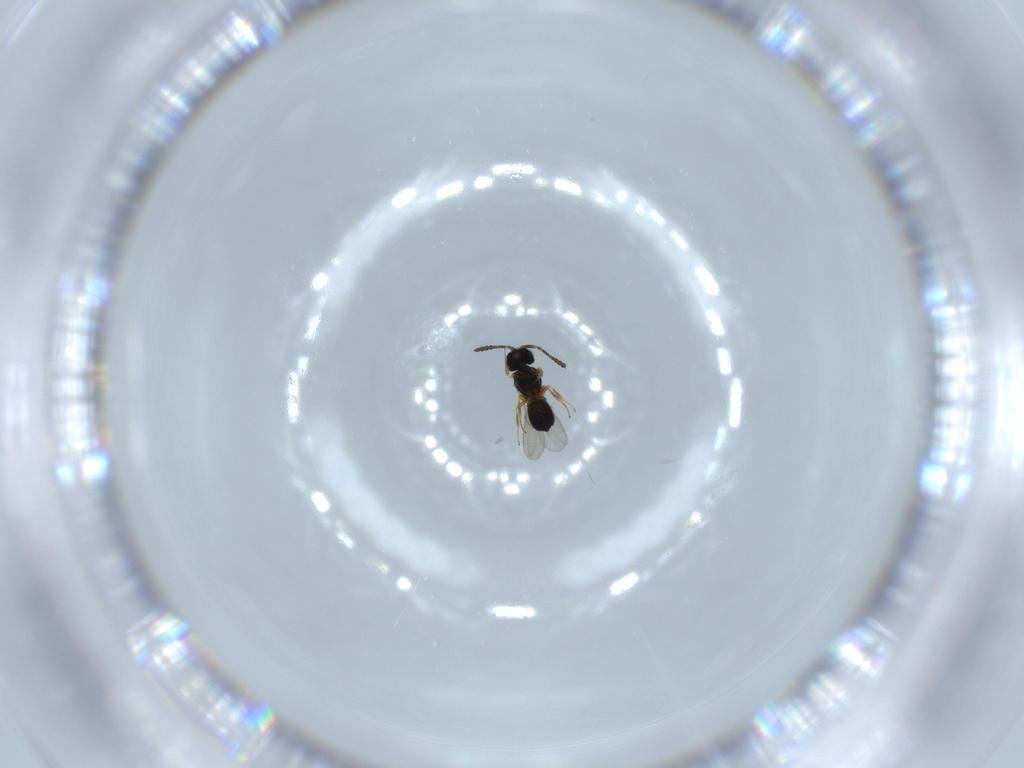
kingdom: Animalia
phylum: Arthropoda
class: Insecta
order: Hymenoptera
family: Scelionidae
